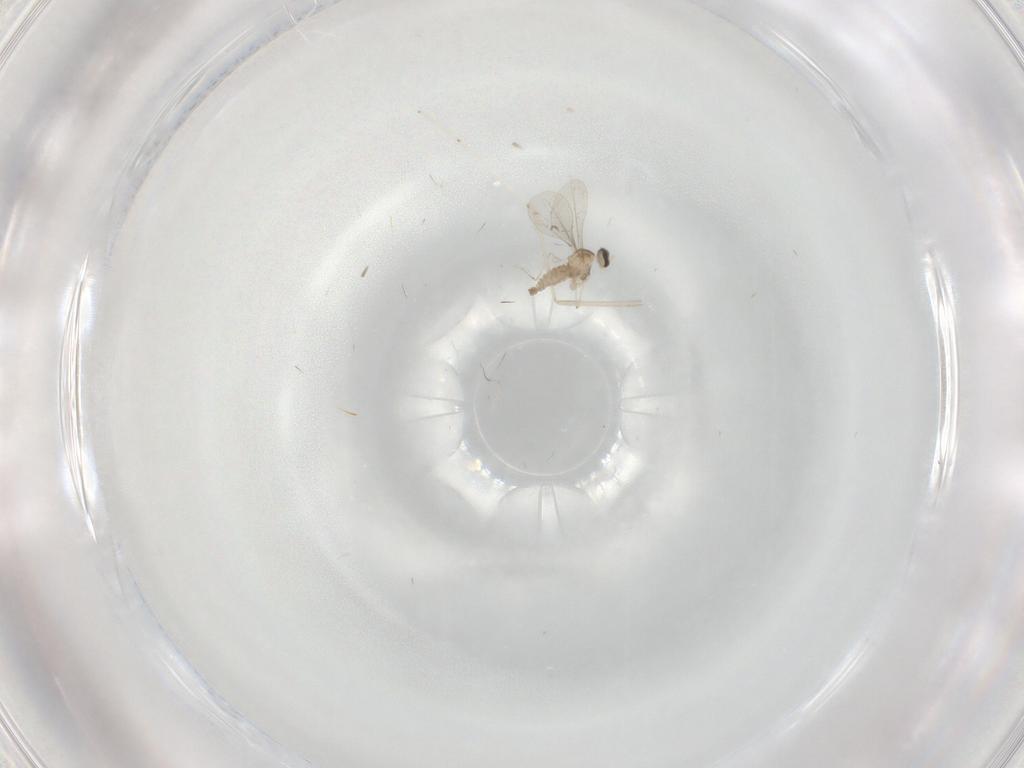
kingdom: Animalia
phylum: Arthropoda
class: Insecta
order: Diptera
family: Cecidomyiidae
